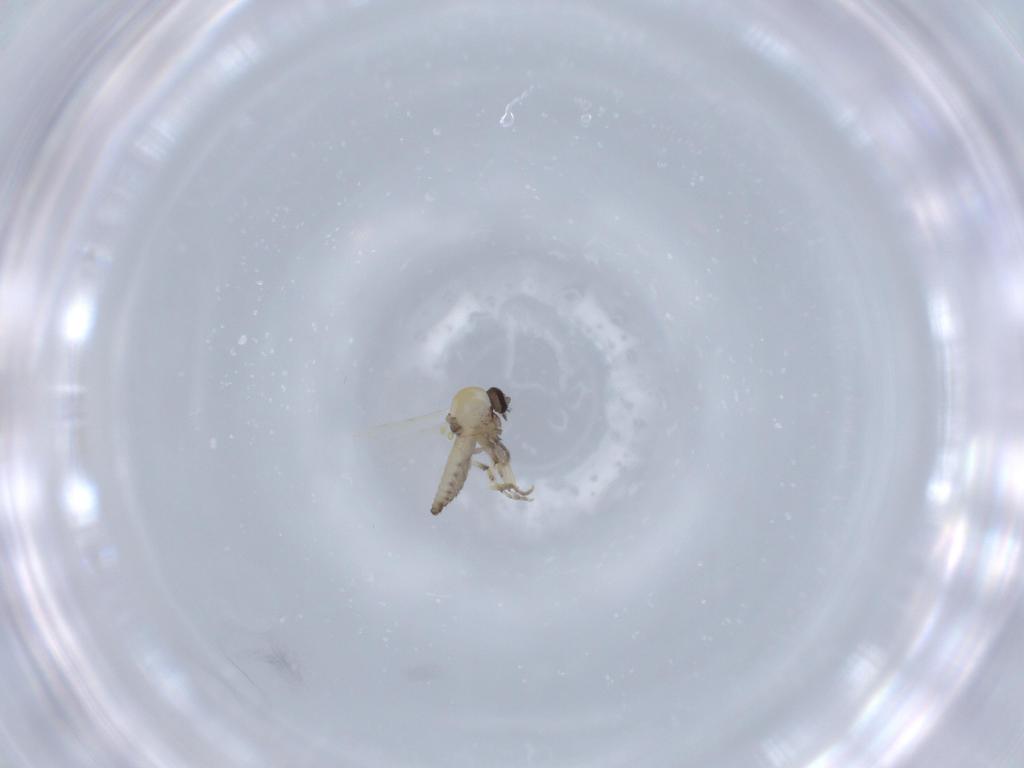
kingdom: Animalia
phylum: Arthropoda
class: Insecta
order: Diptera
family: Ceratopogonidae
